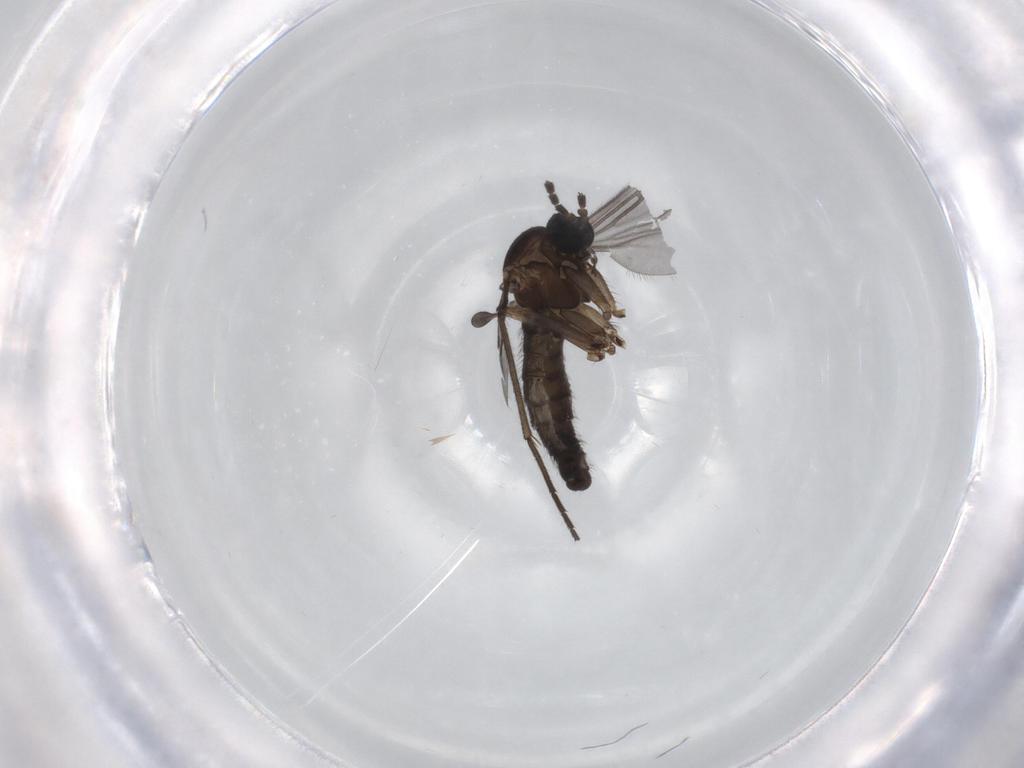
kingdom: Animalia
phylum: Arthropoda
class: Insecta
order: Diptera
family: Sciaridae
